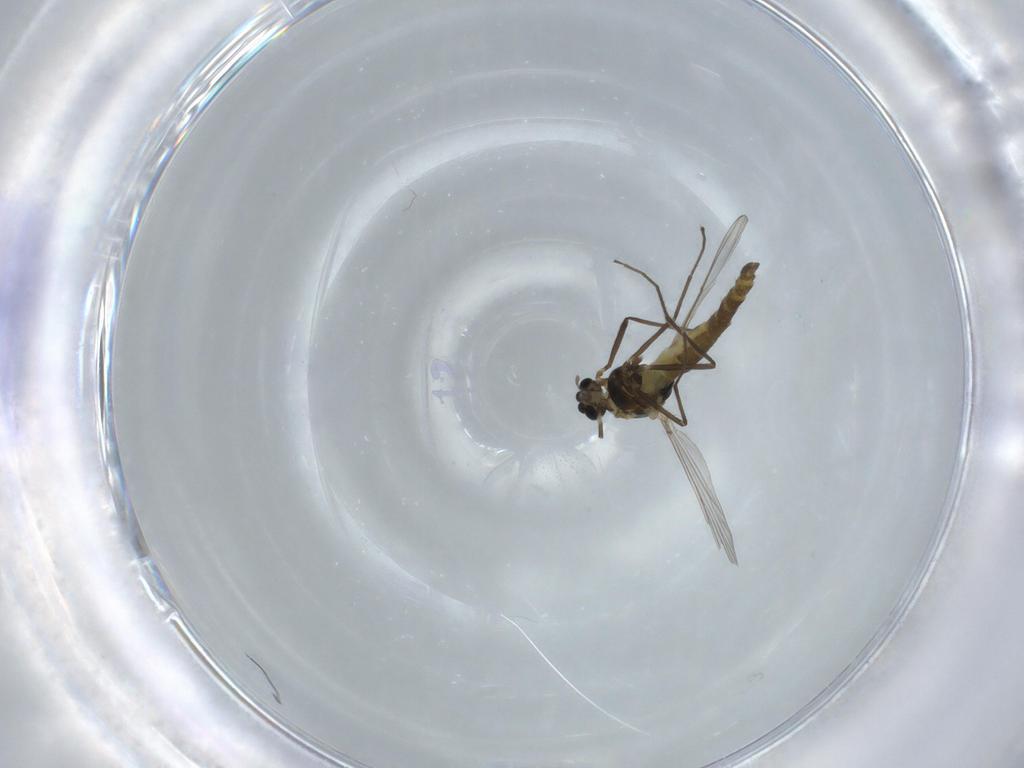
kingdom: Animalia
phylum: Arthropoda
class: Insecta
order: Diptera
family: Chironomidae
